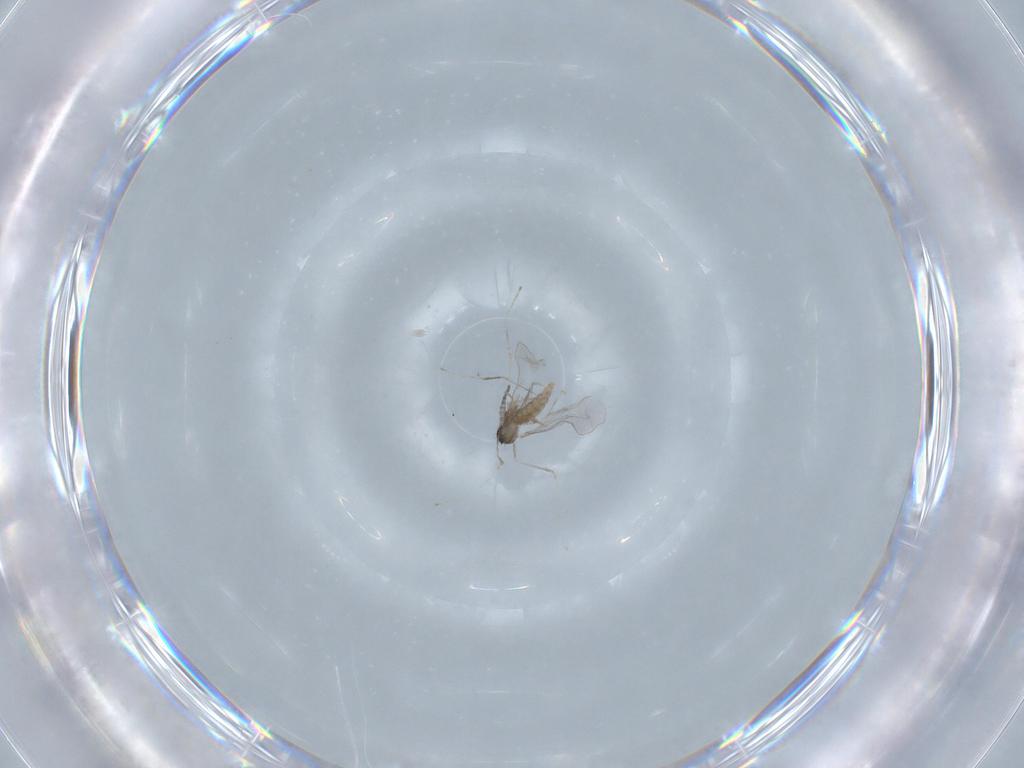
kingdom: Animalia
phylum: Arthropoda
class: Insecta
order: Diptera
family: Cecidomyiidae
